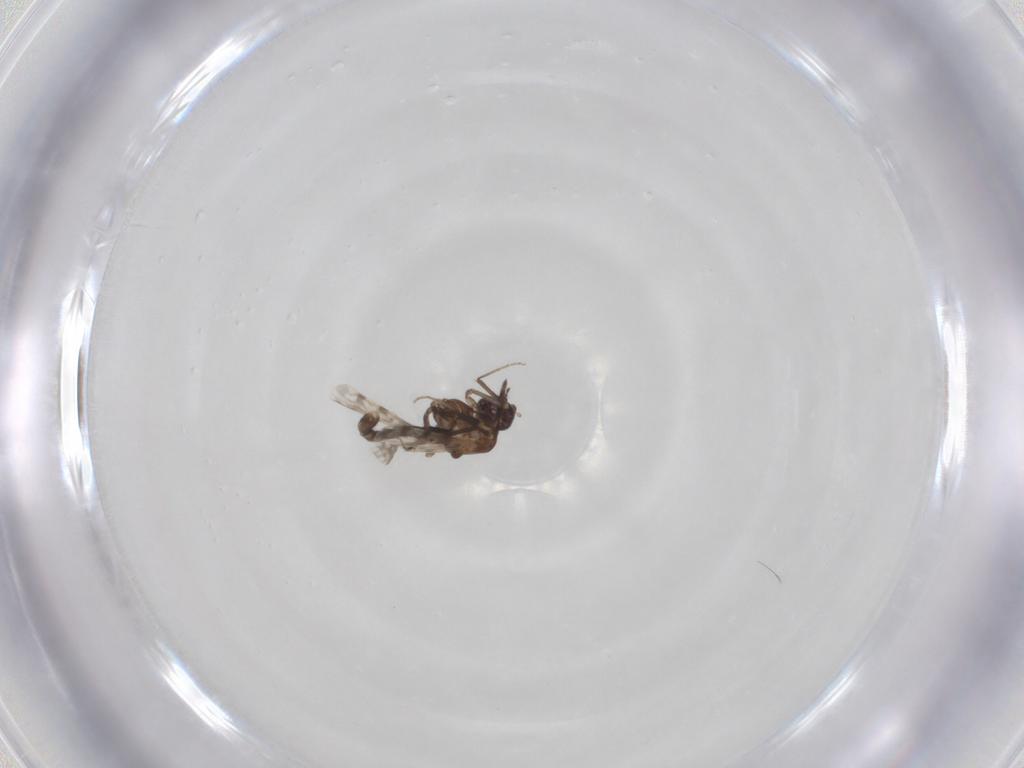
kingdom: Animalia
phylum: Arthropoda
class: Insecta
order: Diptera
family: Ceratopogonidae
